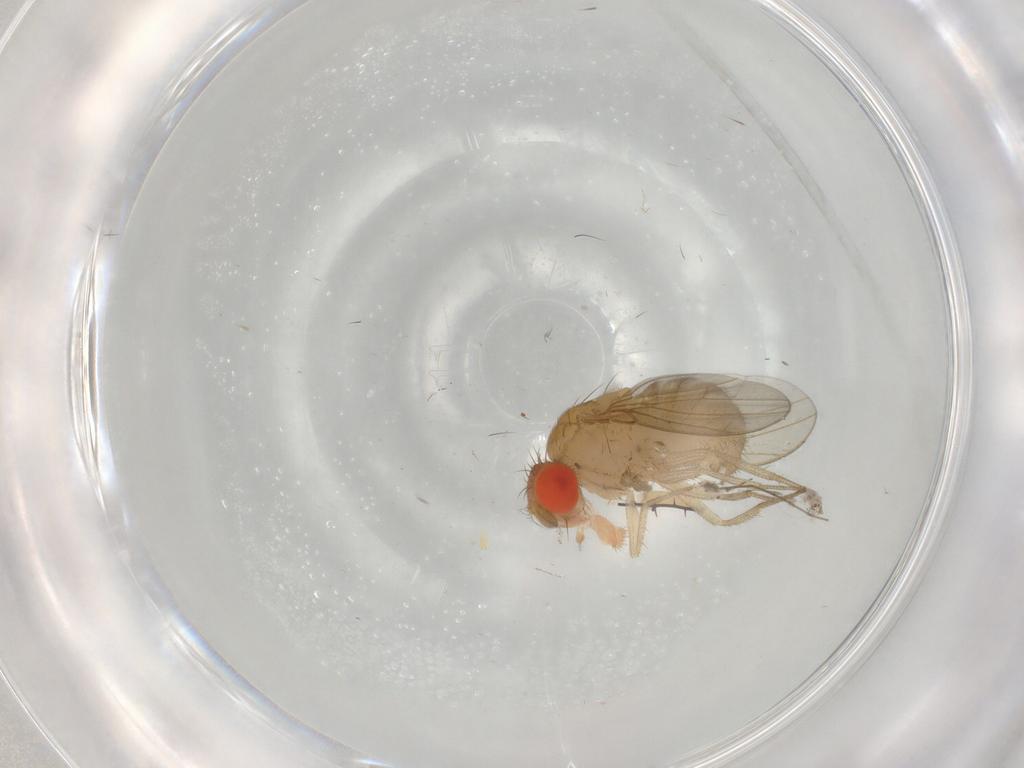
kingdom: Animalia
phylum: Arthropoda
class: Insecta
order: Diptera
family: Drosophilidae
